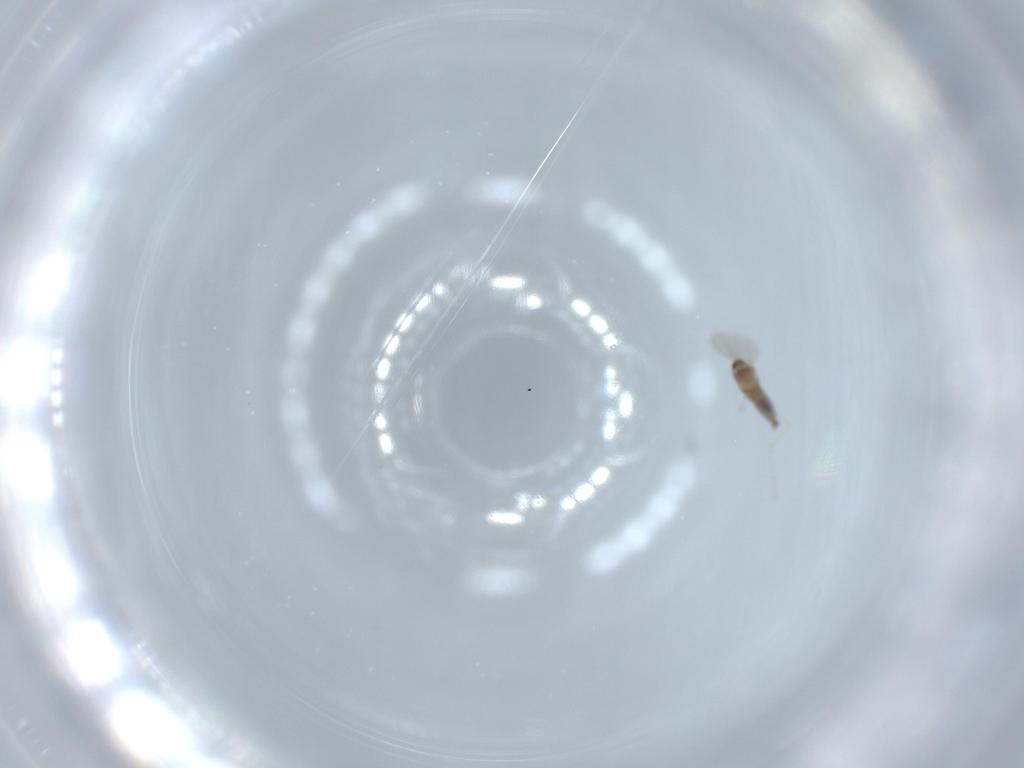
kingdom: Animalia
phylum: Arthropoda
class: Insecta
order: Diptera
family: Cecidomyiidae
